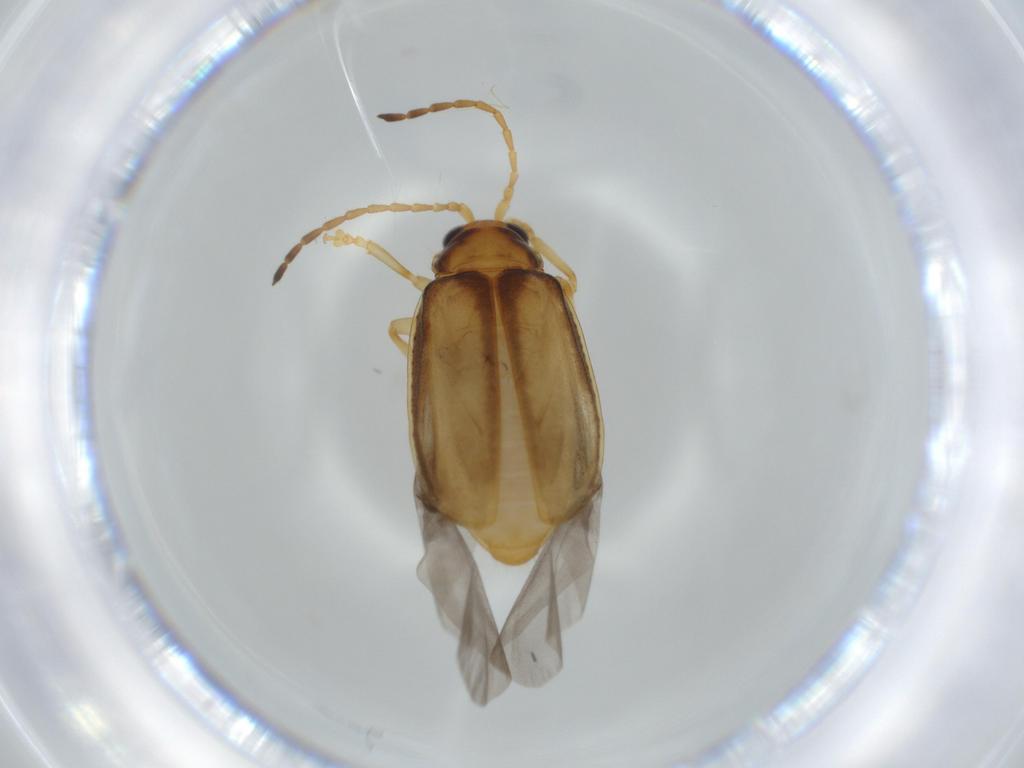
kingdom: Animalia
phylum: Arthropoda
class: Insecta
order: Coleoptera
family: Chrysomelidae
